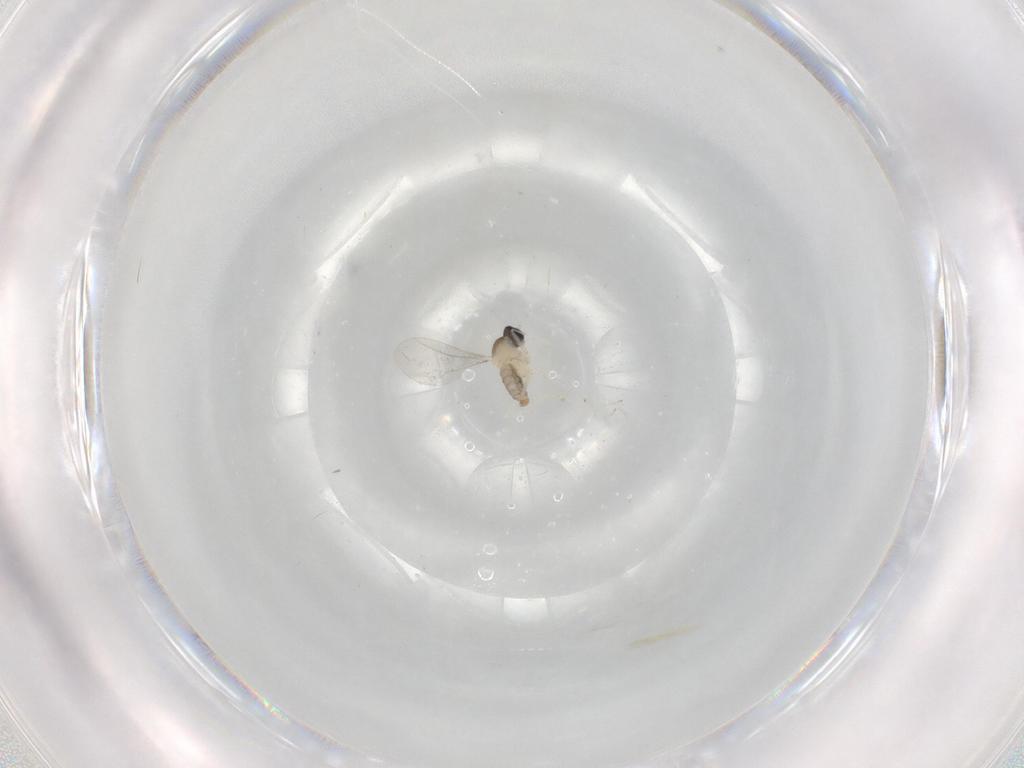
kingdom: Animalia
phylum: Arthropoda
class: Insecta
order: Diptera
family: Cecidomyiidae
